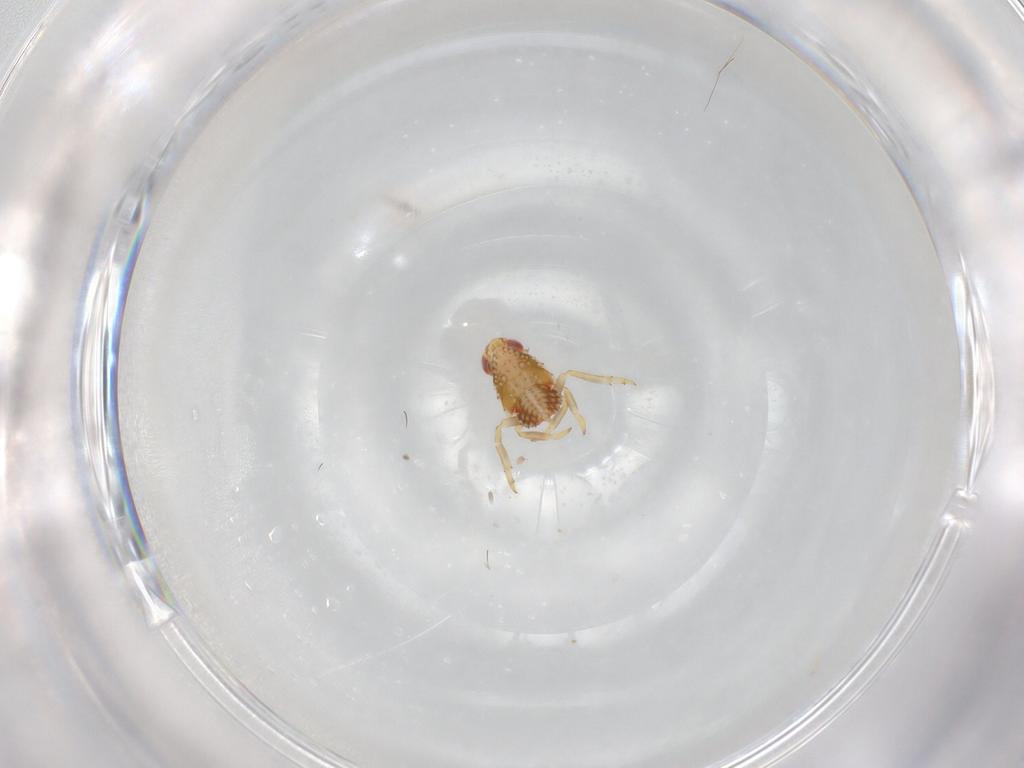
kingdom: Animalia
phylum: Arthropoda
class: Insecta
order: Hemiptera
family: Issidae
